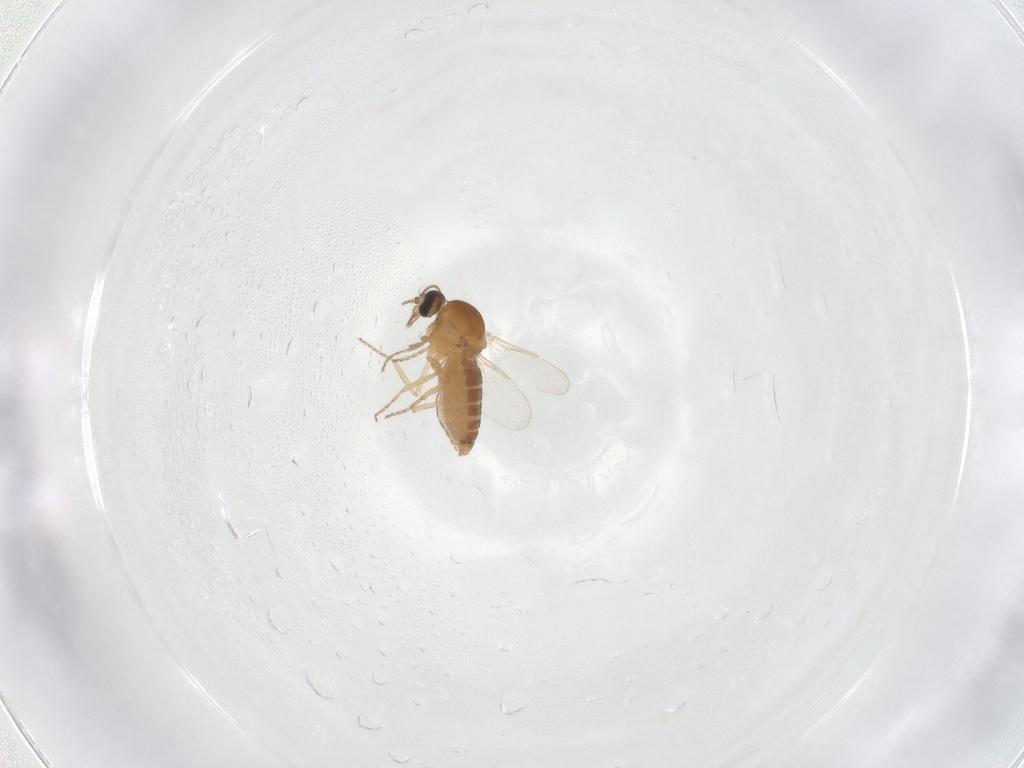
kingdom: Animalia
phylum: Arthropoda
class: Insecta
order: Diptera
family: Ceratopogonidae
